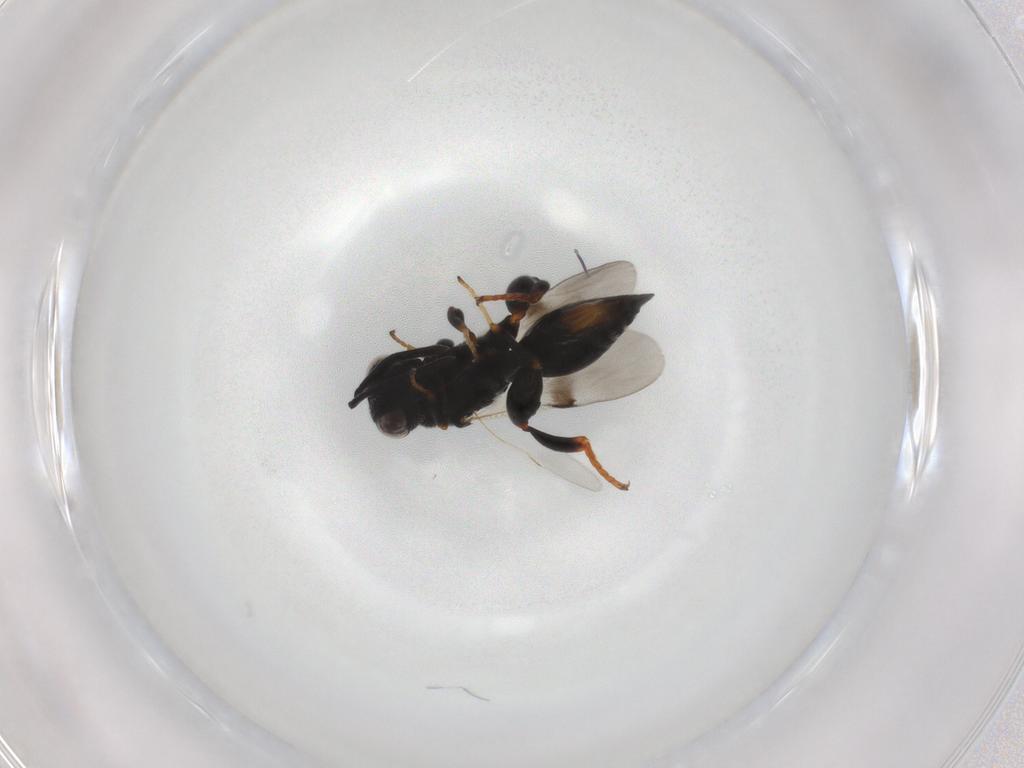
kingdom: Animalia
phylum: Arthropoda
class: Insecta
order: Hymenoptera
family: Chalcididae
